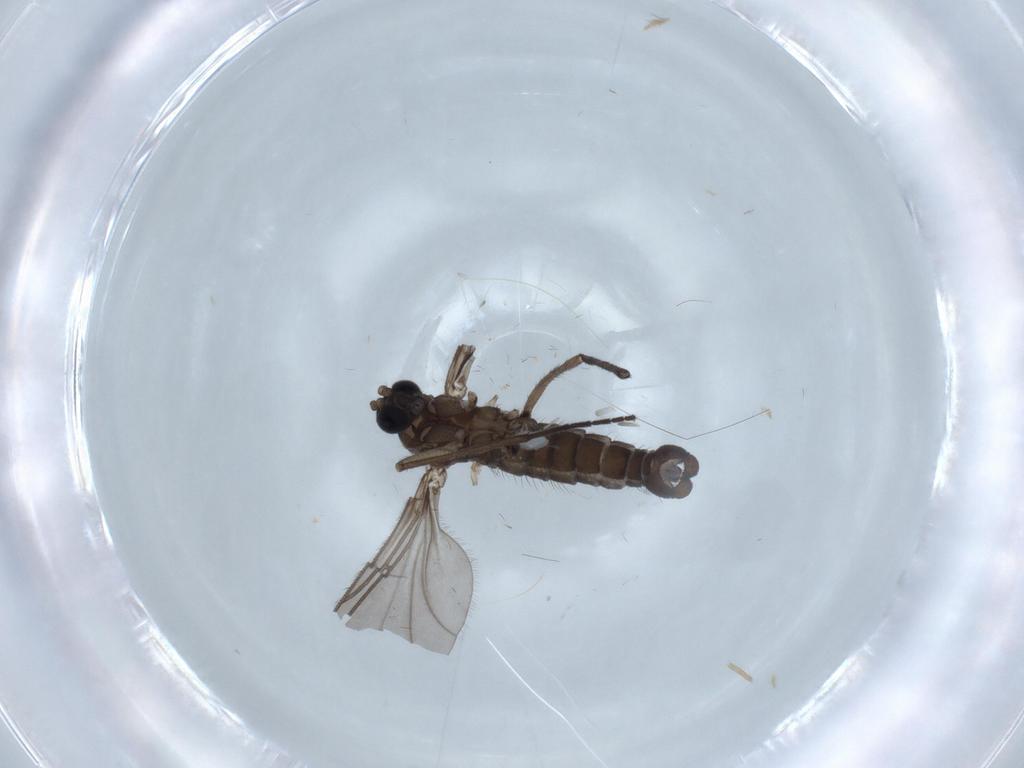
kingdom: Animalia
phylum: Arthropoda
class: Insecta
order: Diptera
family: Sciaridae
